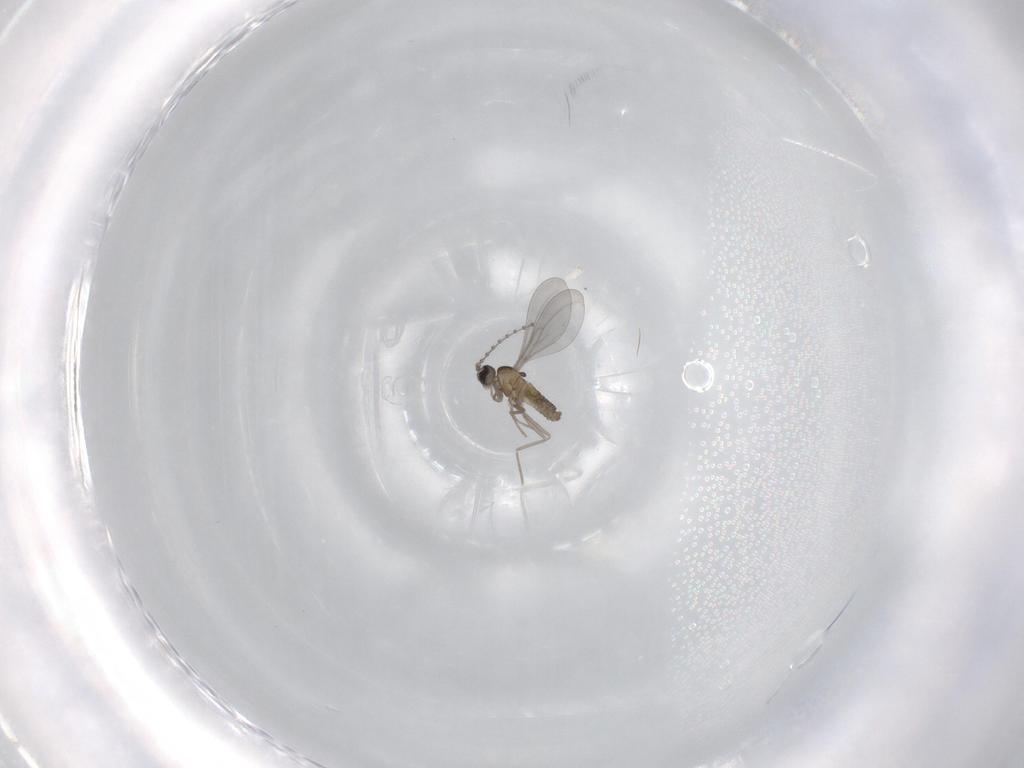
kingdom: Animalia
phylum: Arthropoda
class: Insecta
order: Diptera
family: Cecidomyiidae
